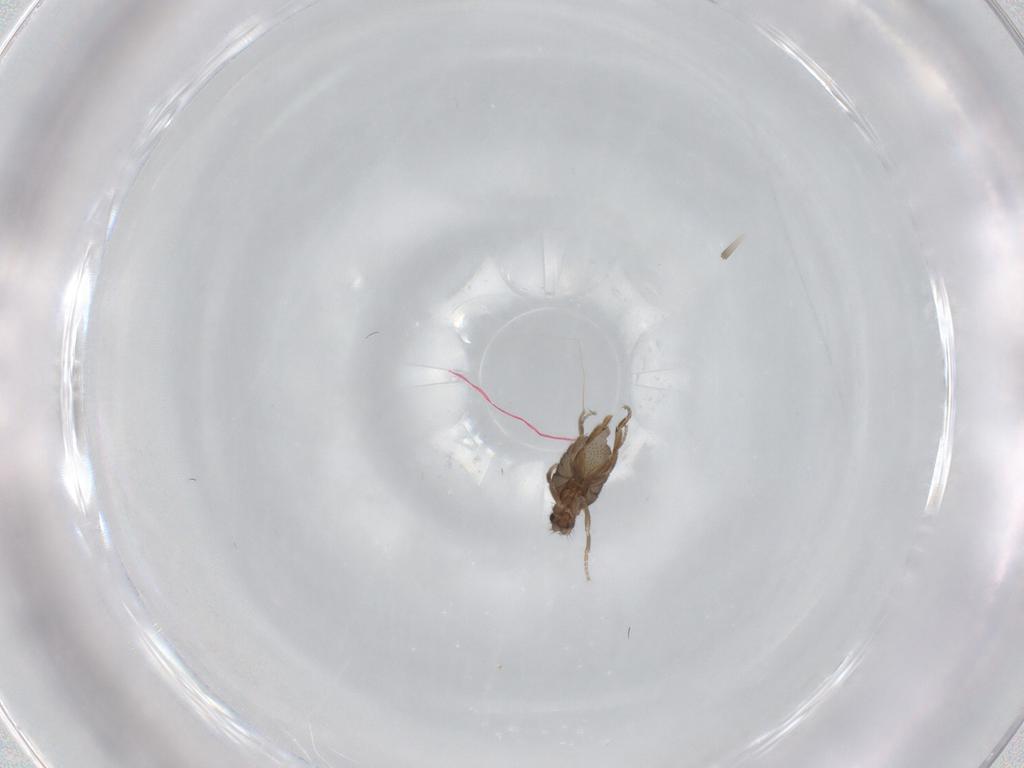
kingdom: Animalia
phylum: Arthropoda
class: Insecta
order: Diptera
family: Phoridae
